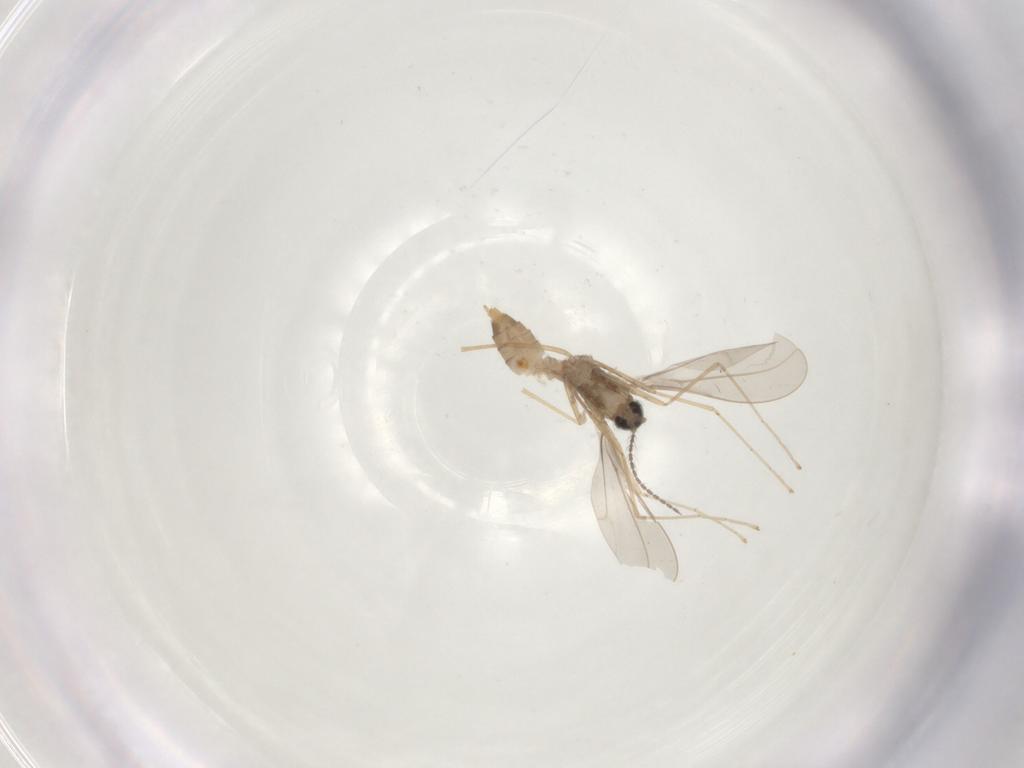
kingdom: Animalia
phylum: Arthropoda
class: Insecta
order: Diptera
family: Cecidomyiidae
